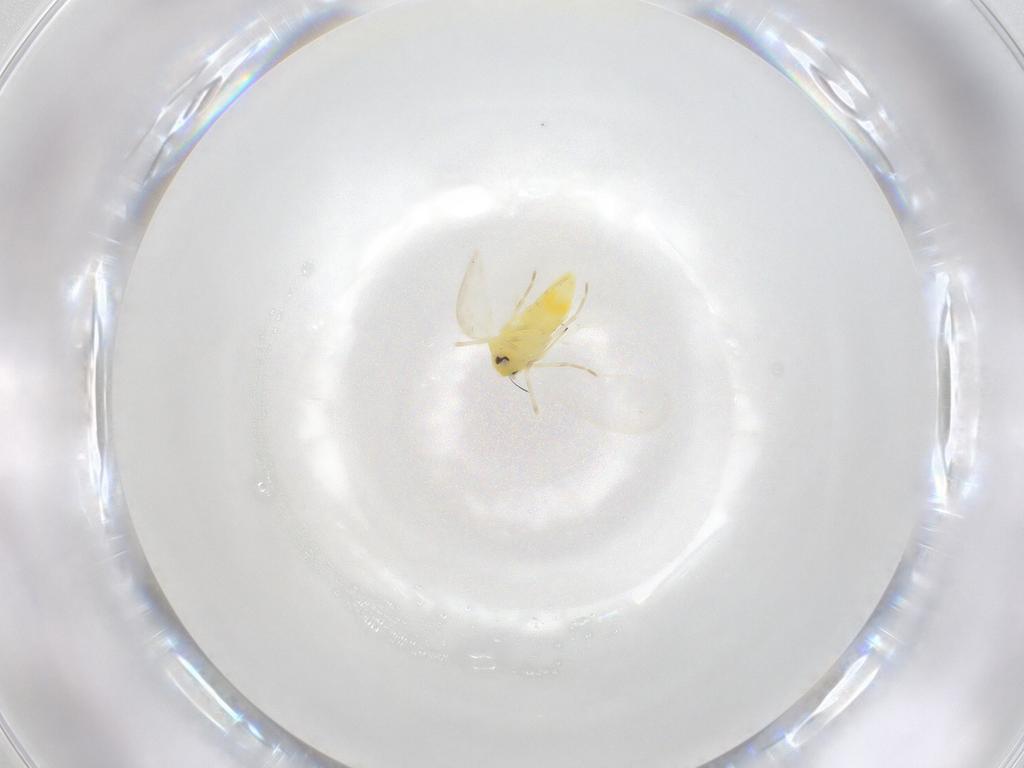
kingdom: Animalia
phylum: Arthropoda
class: Insecta
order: Hemiptera
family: Aleyrodidae
